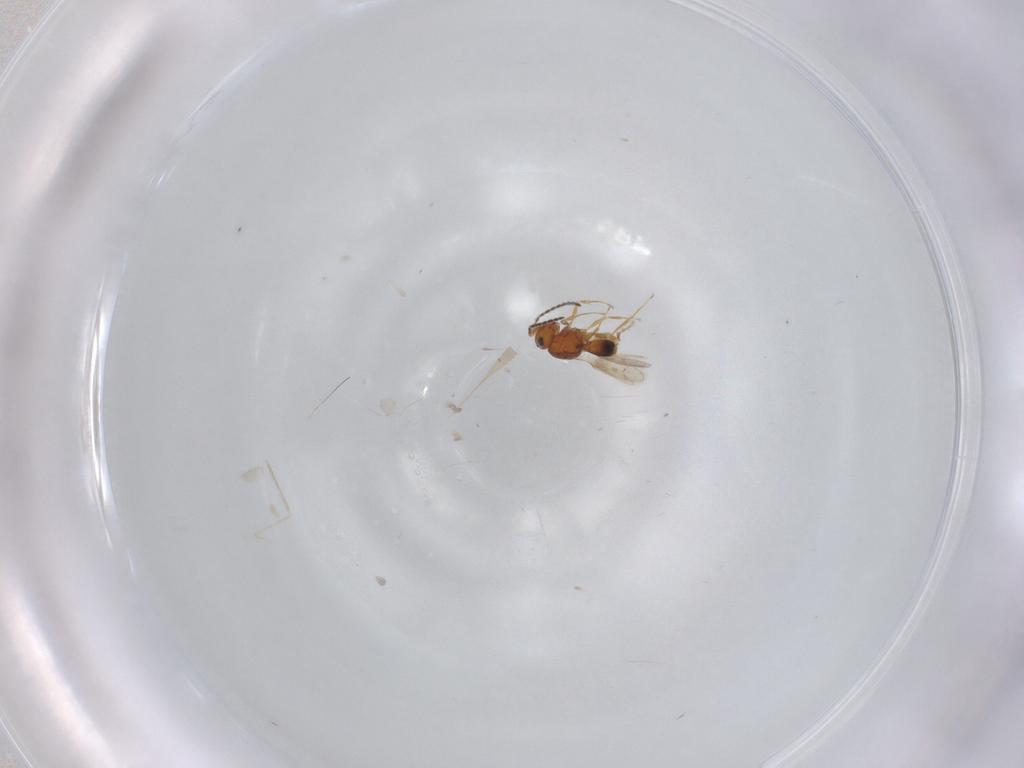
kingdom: Animalia
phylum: Arthropoda
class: Insecta
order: Hymenoptera
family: Scelionidae
